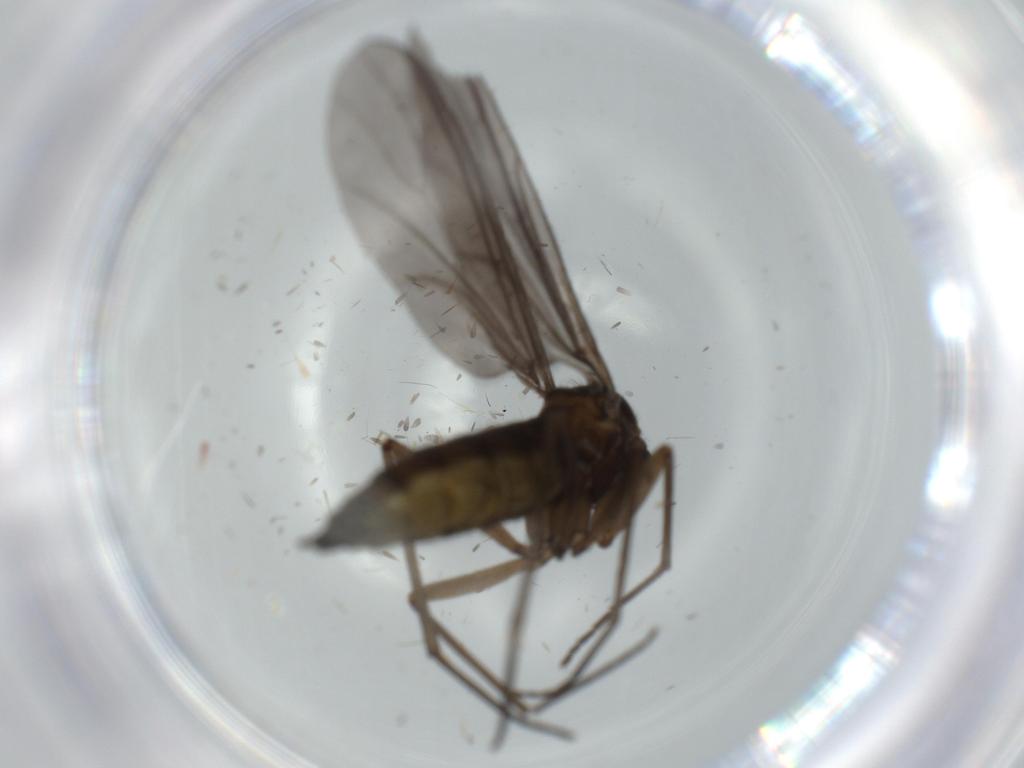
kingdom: Animalia
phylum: Arthropoda
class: Insecta
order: Diptera
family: Sciaridae
